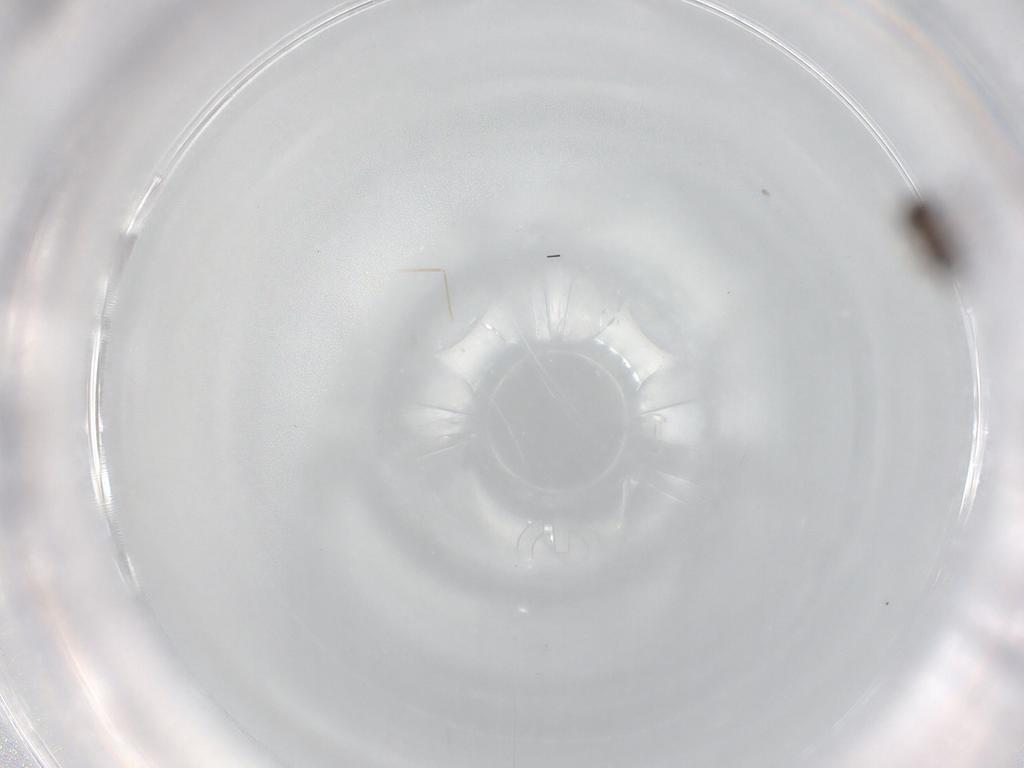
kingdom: Animalia
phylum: Arthropoda
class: Insecta
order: Diptera
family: Ceratopogonidae
